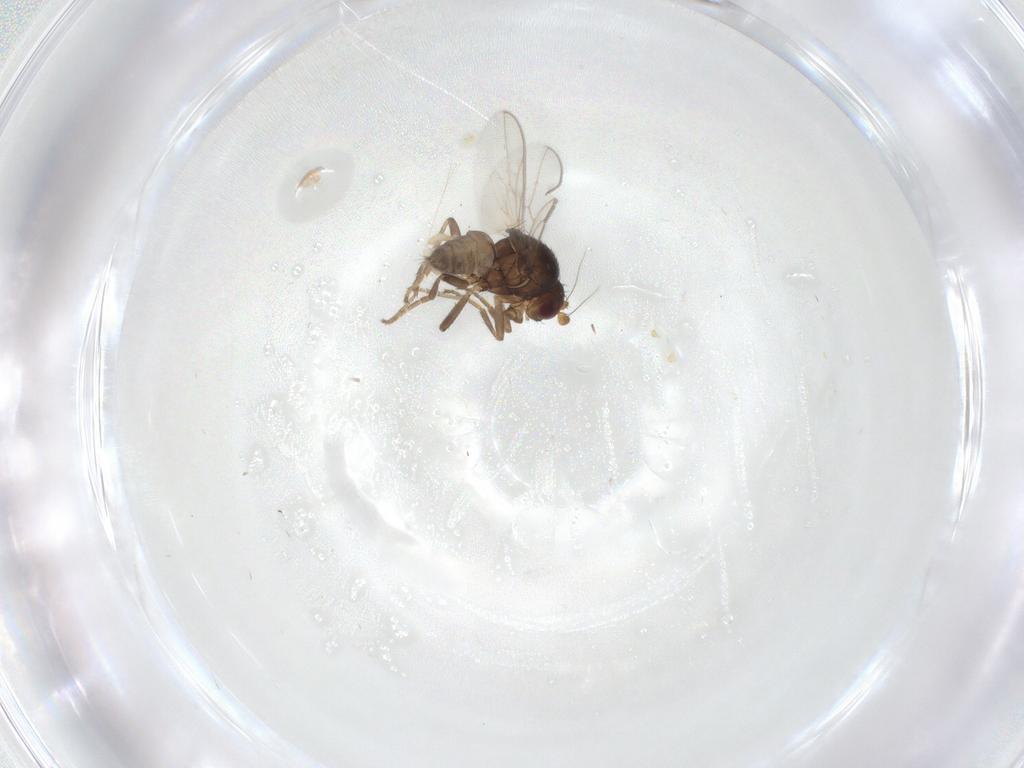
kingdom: Animalia
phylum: Arthropoda
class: Insecta
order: Diptera
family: Sphaeroceridae
